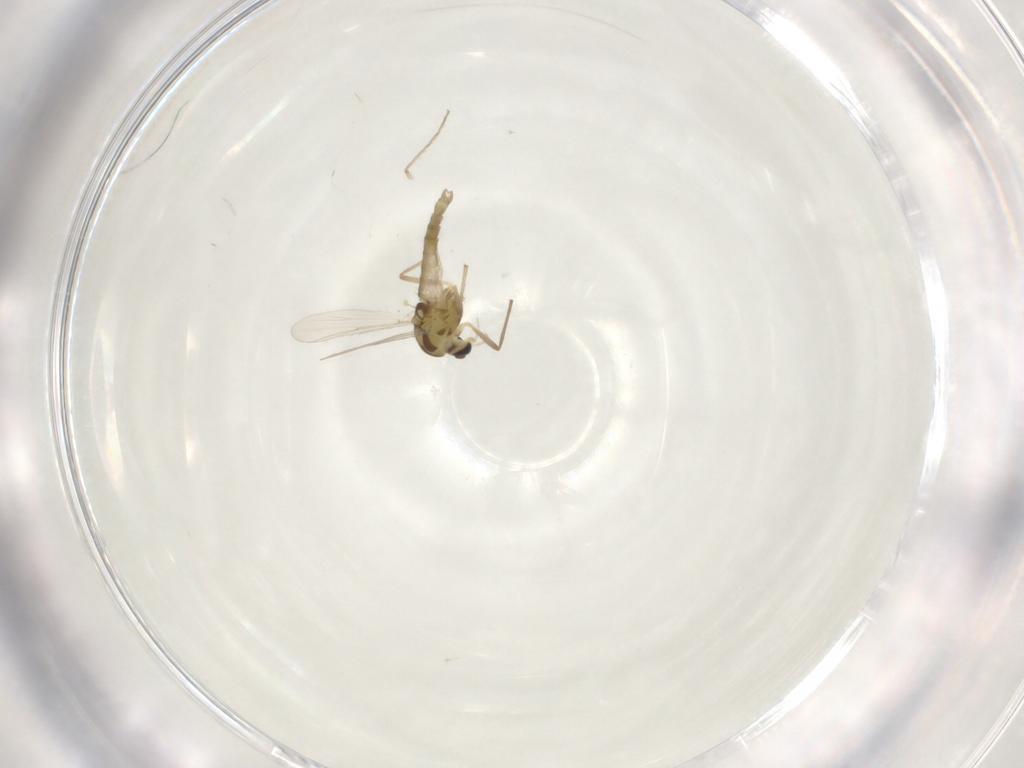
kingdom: Animalia
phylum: Arthropoda
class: Insecta
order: Diptera
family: Chironomidae
